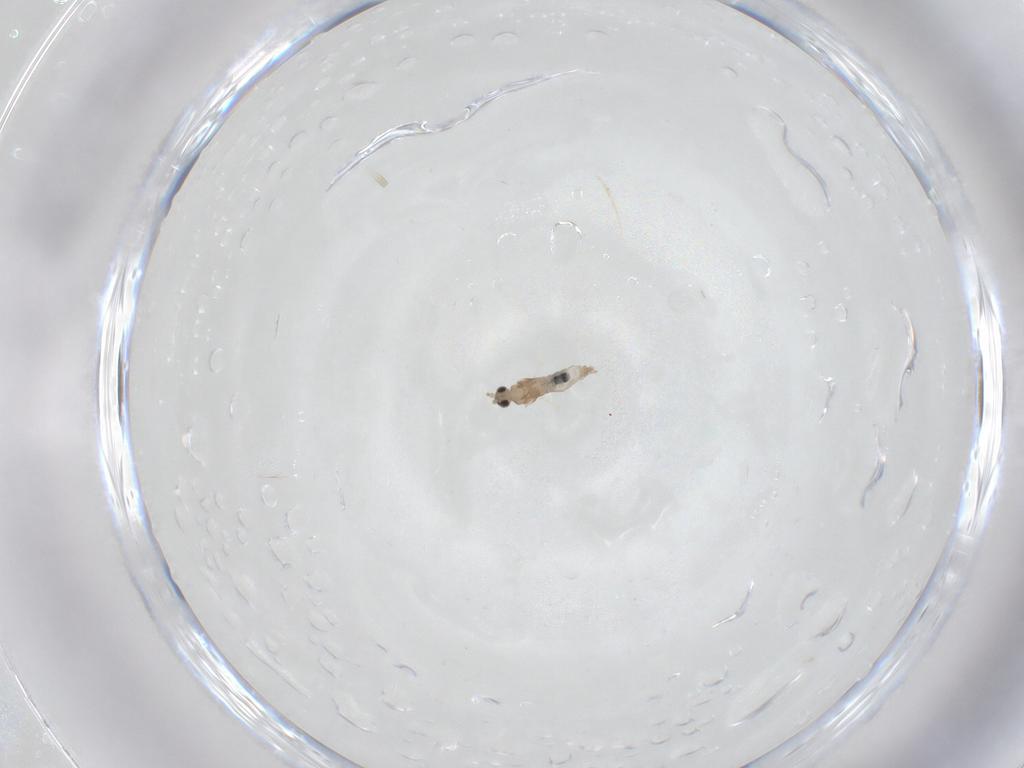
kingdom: Animalia
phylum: Arthropoda
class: Insecta
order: Diptera
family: Cecidomyiidae
